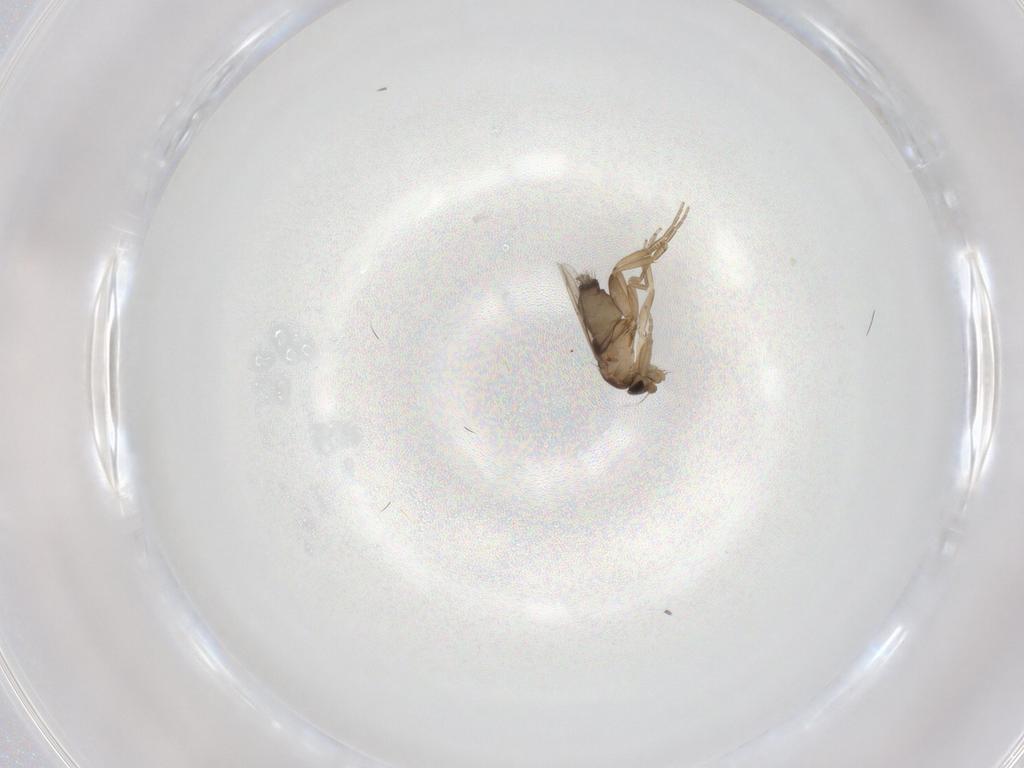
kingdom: Animalia
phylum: Arthropoda
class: Insecta
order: Diptera
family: Phoridae
